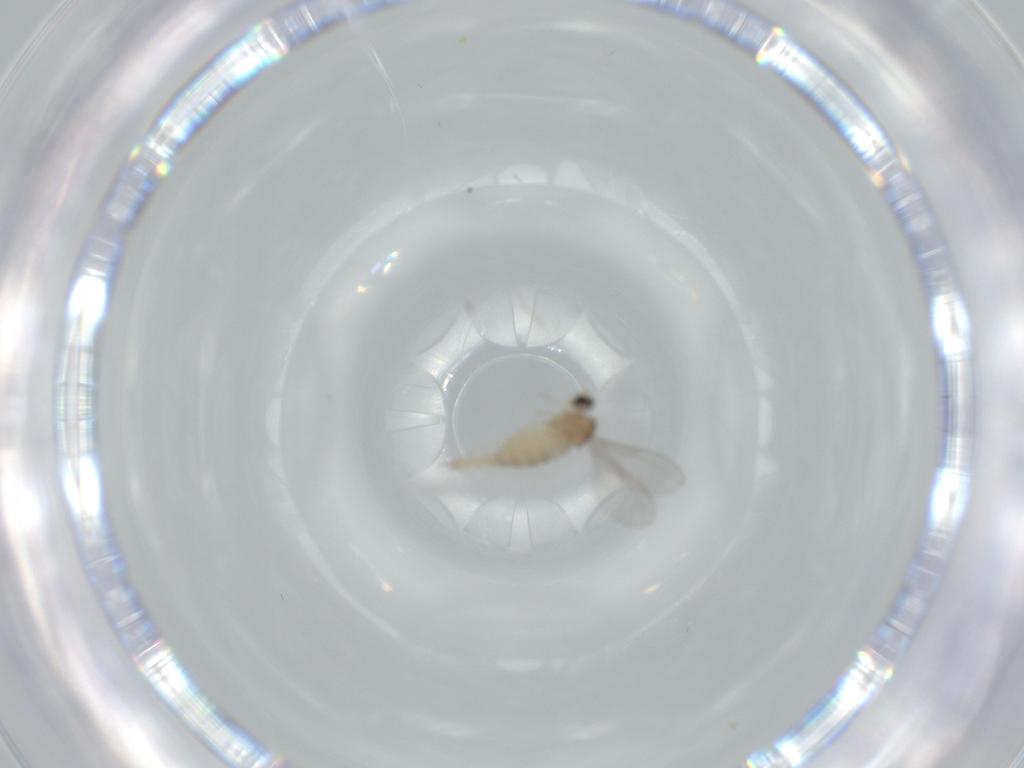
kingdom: Animalia
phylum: Arthropoda
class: Insecta
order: Diptera
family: Cecidomyiidae
